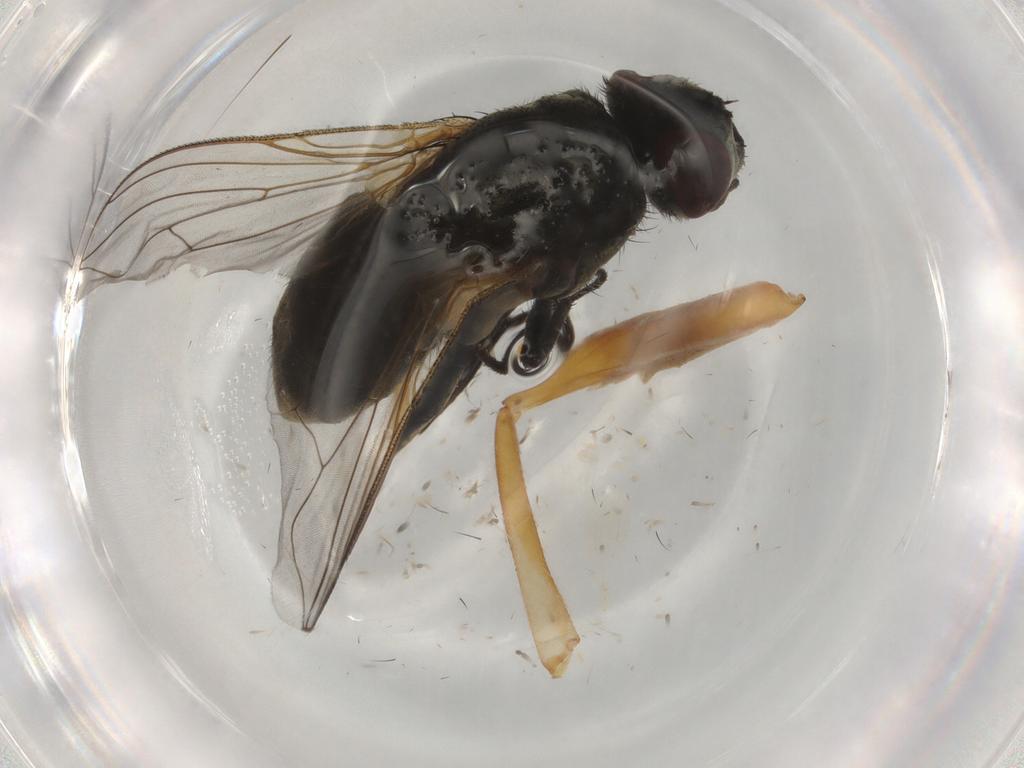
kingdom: Animalia
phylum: Arthropoda
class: Insecta
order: Diptera
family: Muscidae
